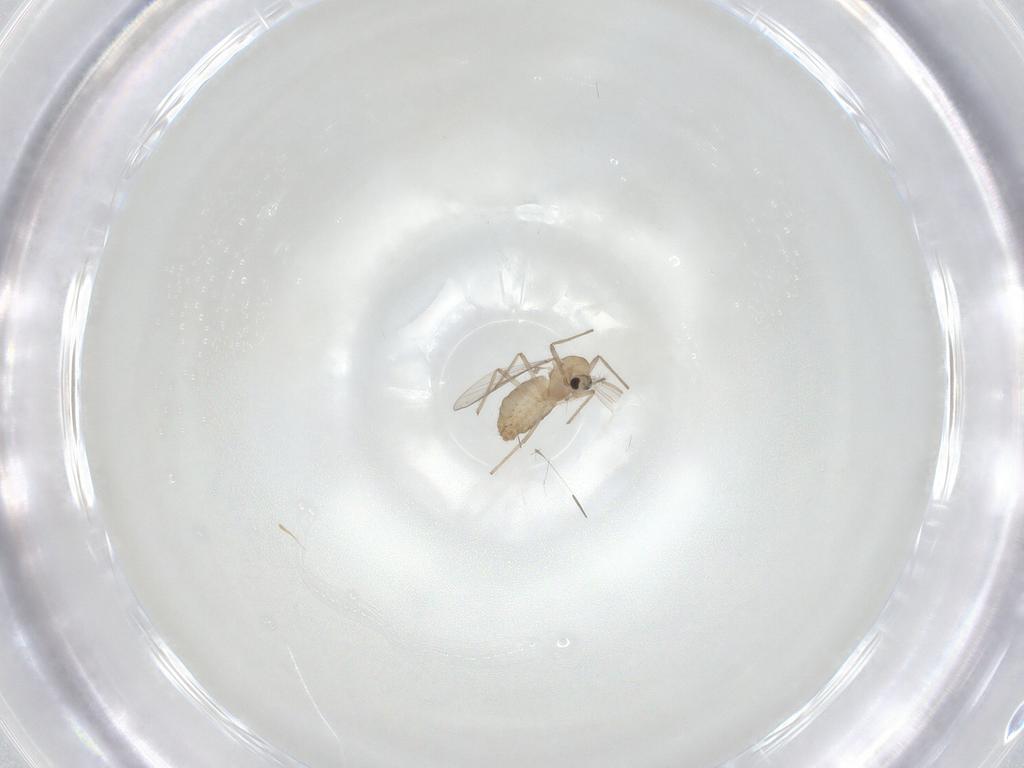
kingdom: Animalia
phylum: Arthropoda
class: Insecta
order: Diptera
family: Chironomidae
